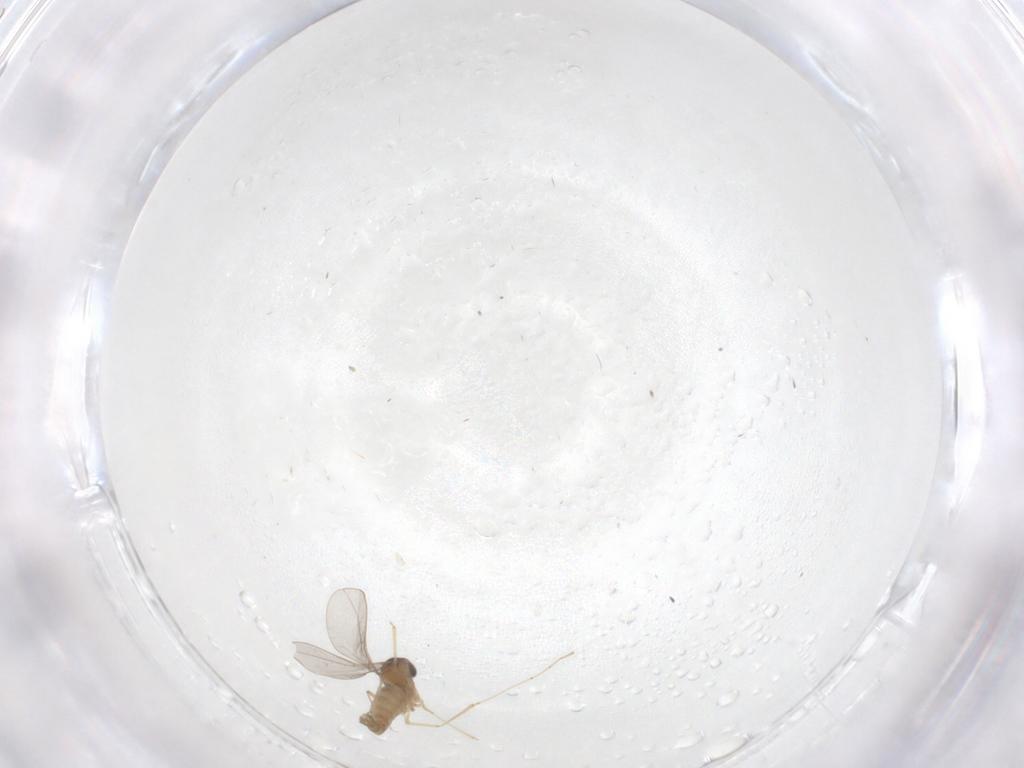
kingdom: Animalia
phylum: Arthropoda
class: Insecta
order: Diptera
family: Cecidomyiidae
